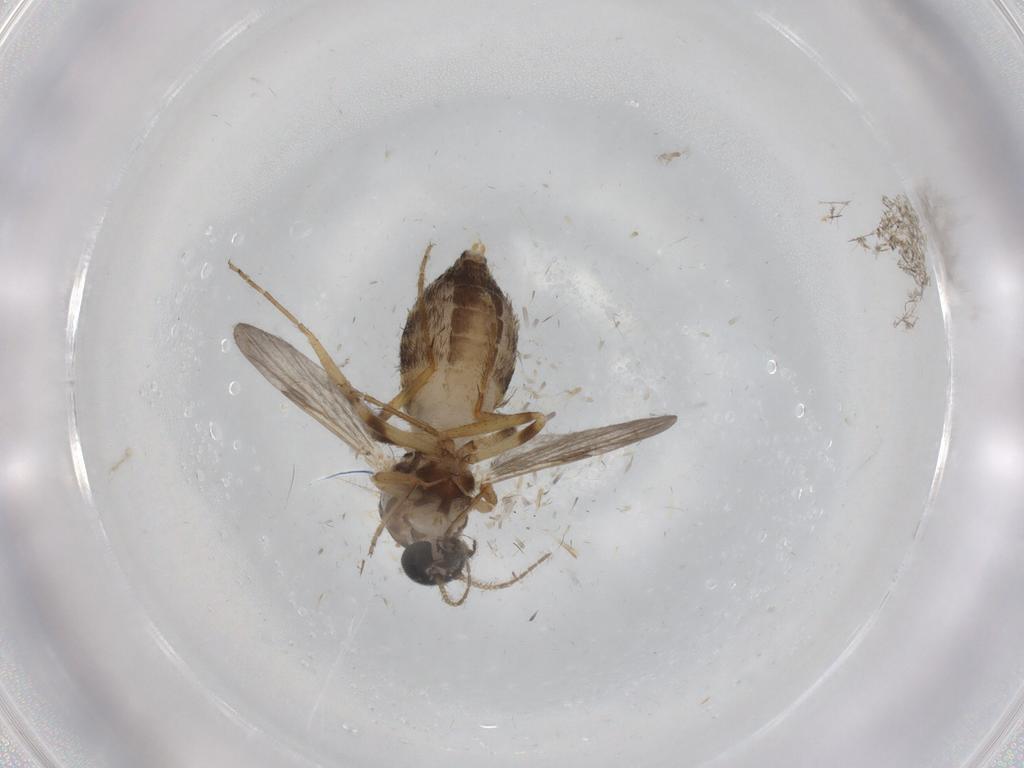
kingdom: Animalia
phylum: Arthropoda
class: Insecta
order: Diptera
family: Ceratopogonidae
